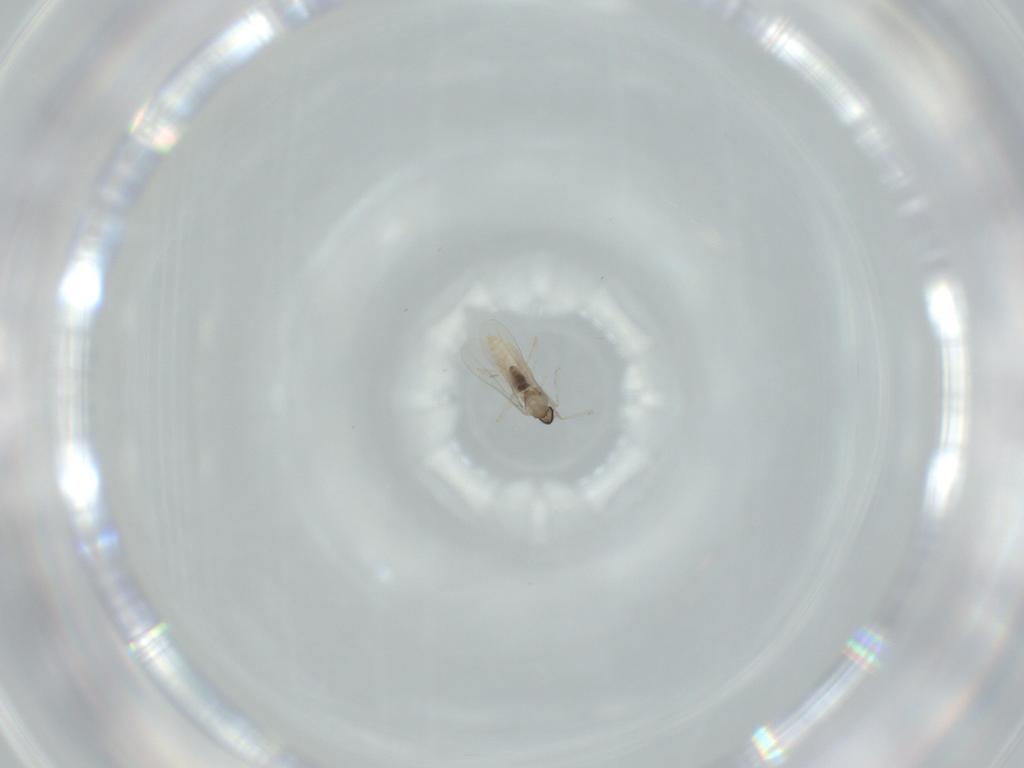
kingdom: Animalia
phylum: Arthropoda
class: Insecta
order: Diptera
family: Cecidomyiidae
